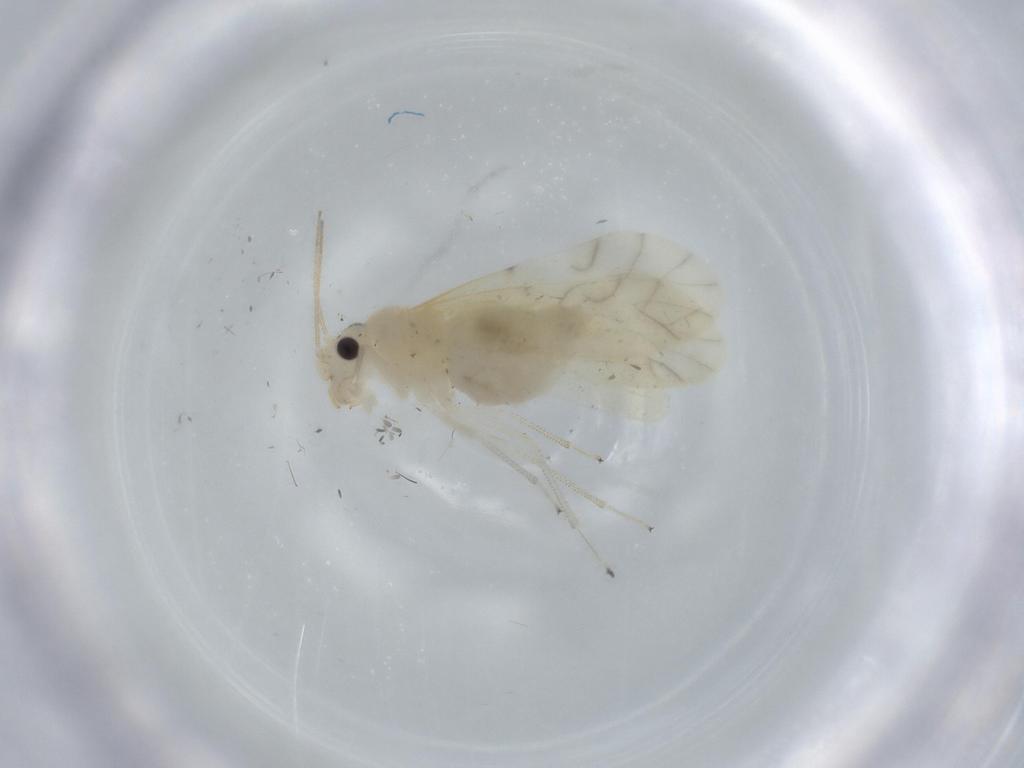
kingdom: Animalia
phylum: Arthropoda
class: Insecta
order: Psocodea
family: Caeciliusidae
